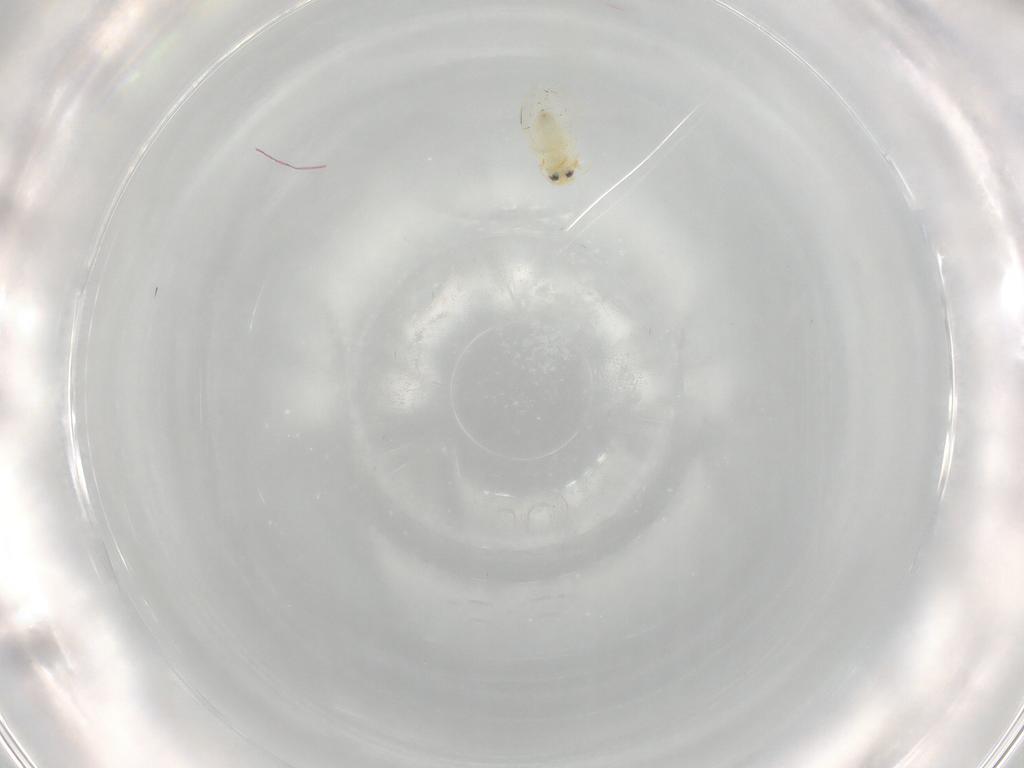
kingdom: Animalia
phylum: Arthropoda
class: Insecta
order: Hemiptera
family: Aleyrodidae
